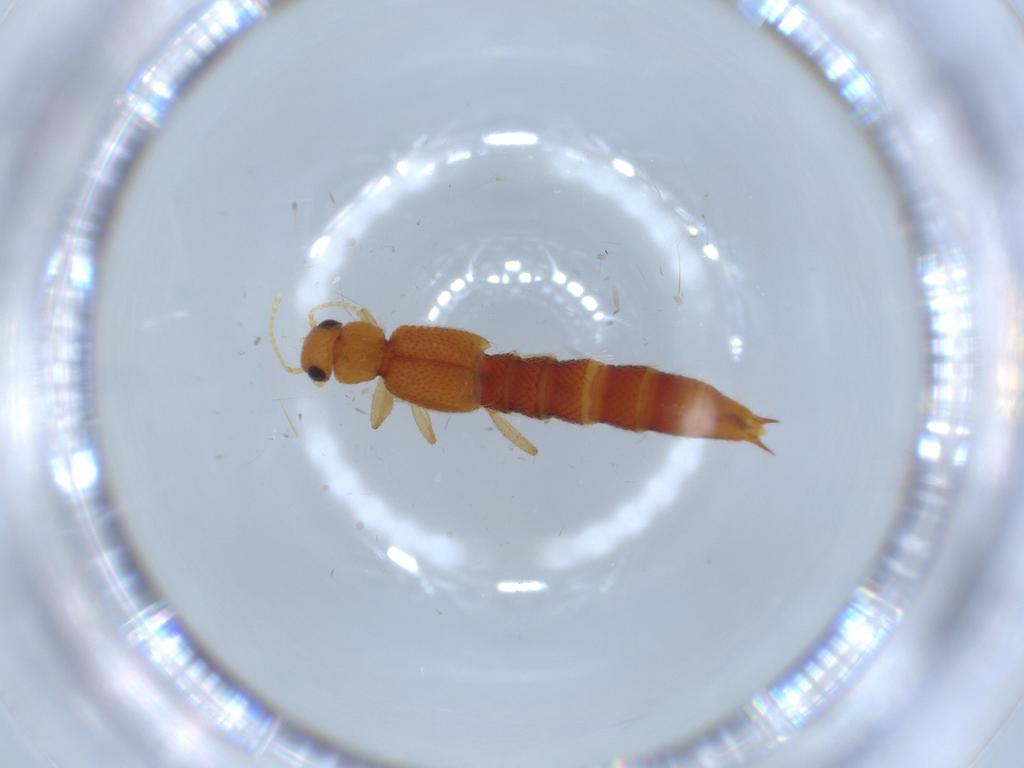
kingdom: Animalia
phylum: Arthropoda
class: Insecta
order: Coleoptera
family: Staphylinidae
